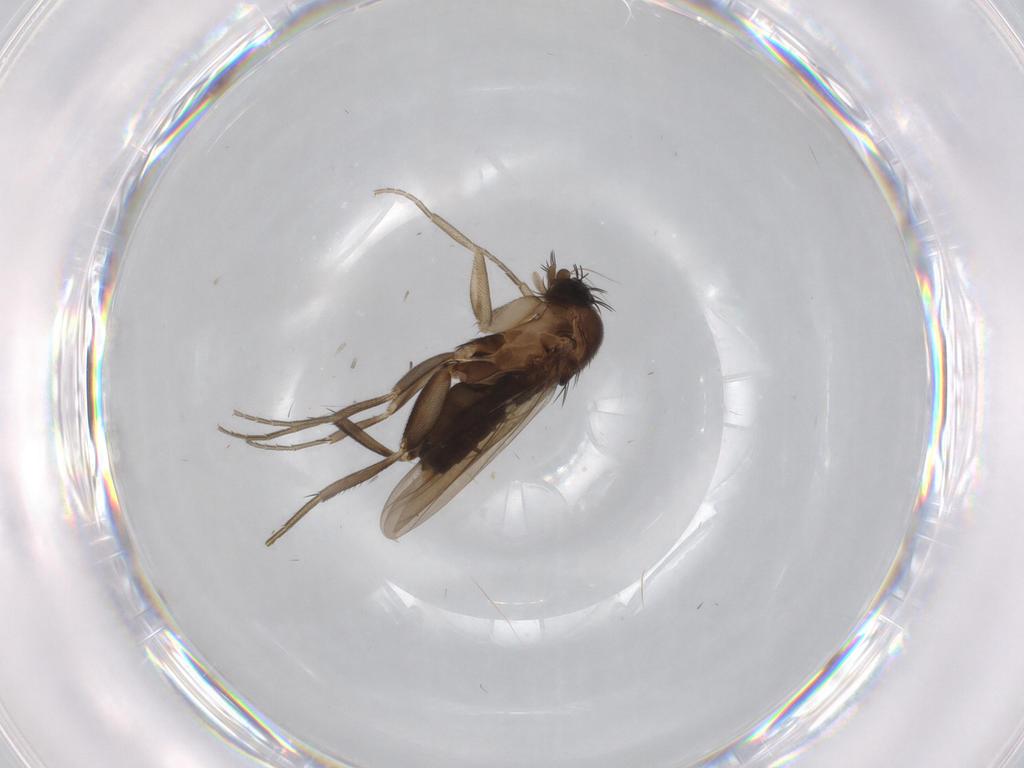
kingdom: Animalia
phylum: Arthropoda
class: Insecta
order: Diptera
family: Phoridae
